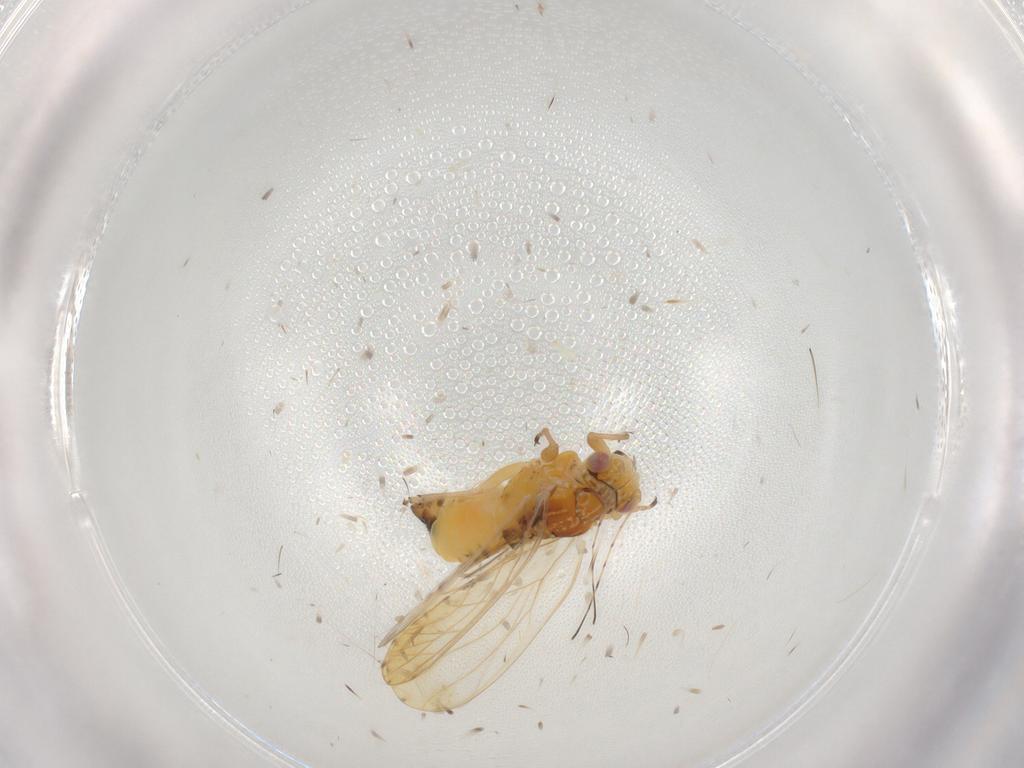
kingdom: Animalia
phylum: Arthropoda
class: Insecta
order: Hemiptera
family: Psyllidae
